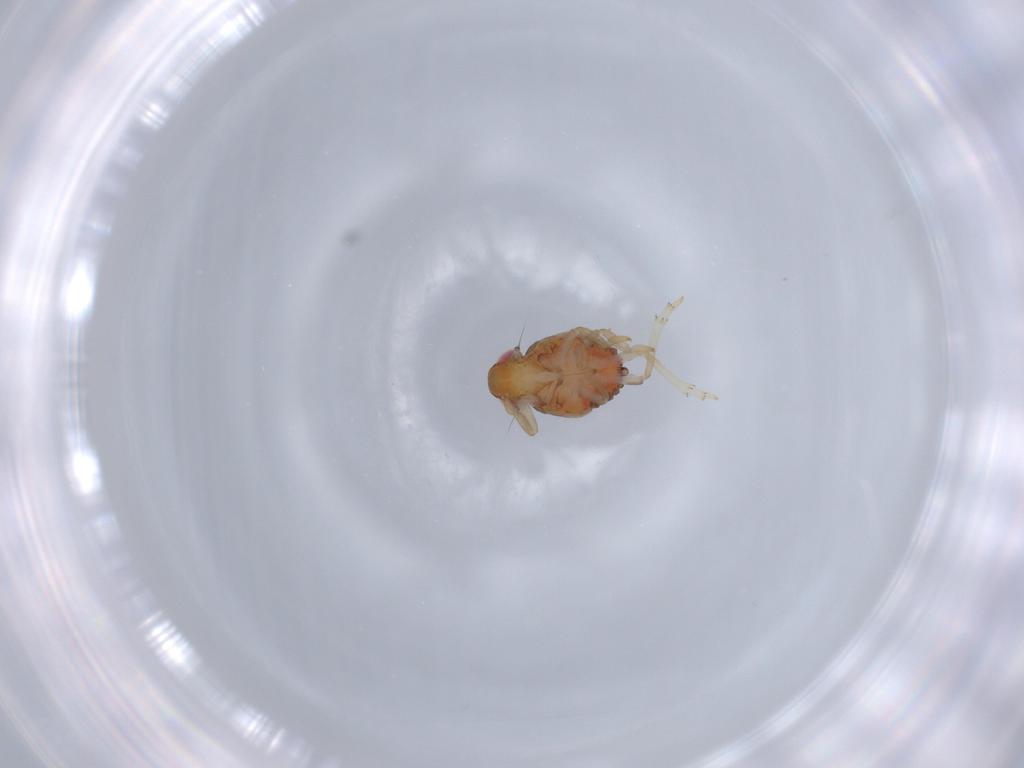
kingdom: Animalia
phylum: Arthropoda
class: Insecta
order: Hemiptera
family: Issidae
